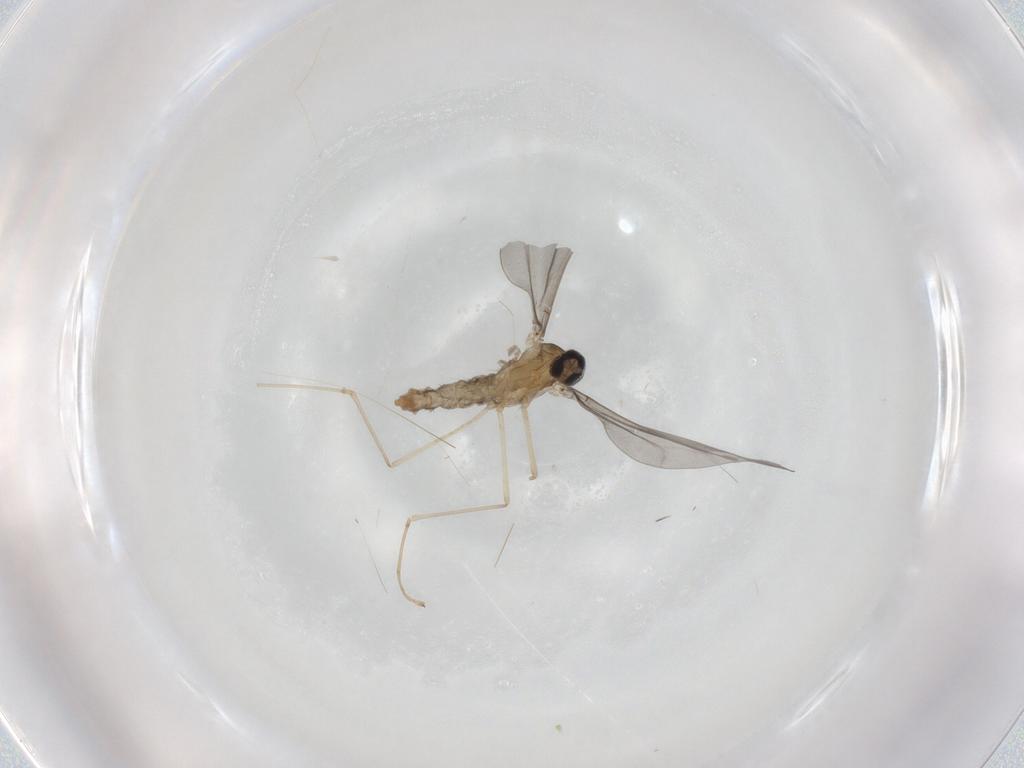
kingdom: Animalia
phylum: Arthropoda
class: Insecta
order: Diptera
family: Cecidomyiidae
